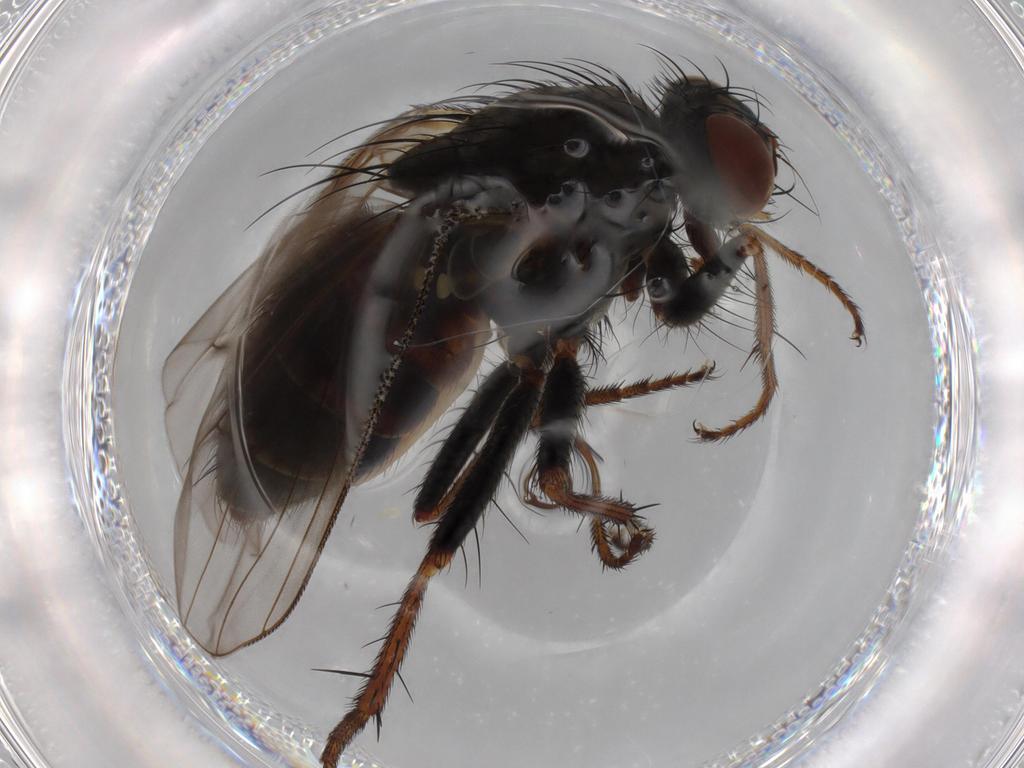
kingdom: Animalia
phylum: Arthropoda
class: Insecta
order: Diptera
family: Muscidae
